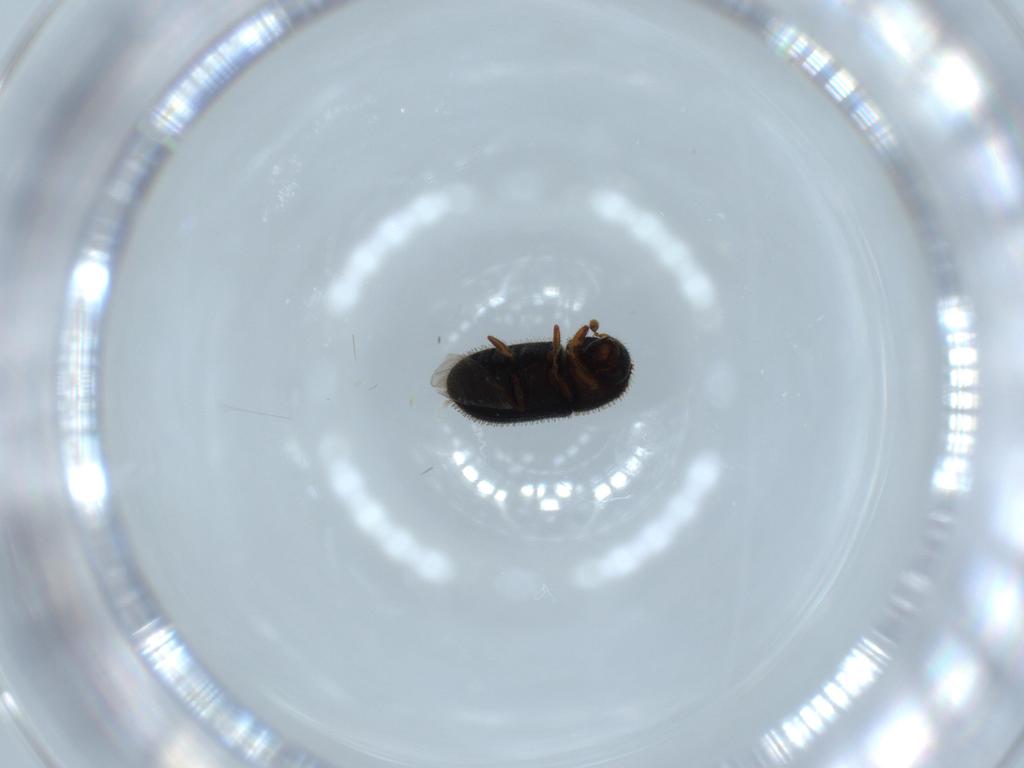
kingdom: Animalia
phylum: Arthropoda
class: Insecta
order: Coleoptera
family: Curculionidae
